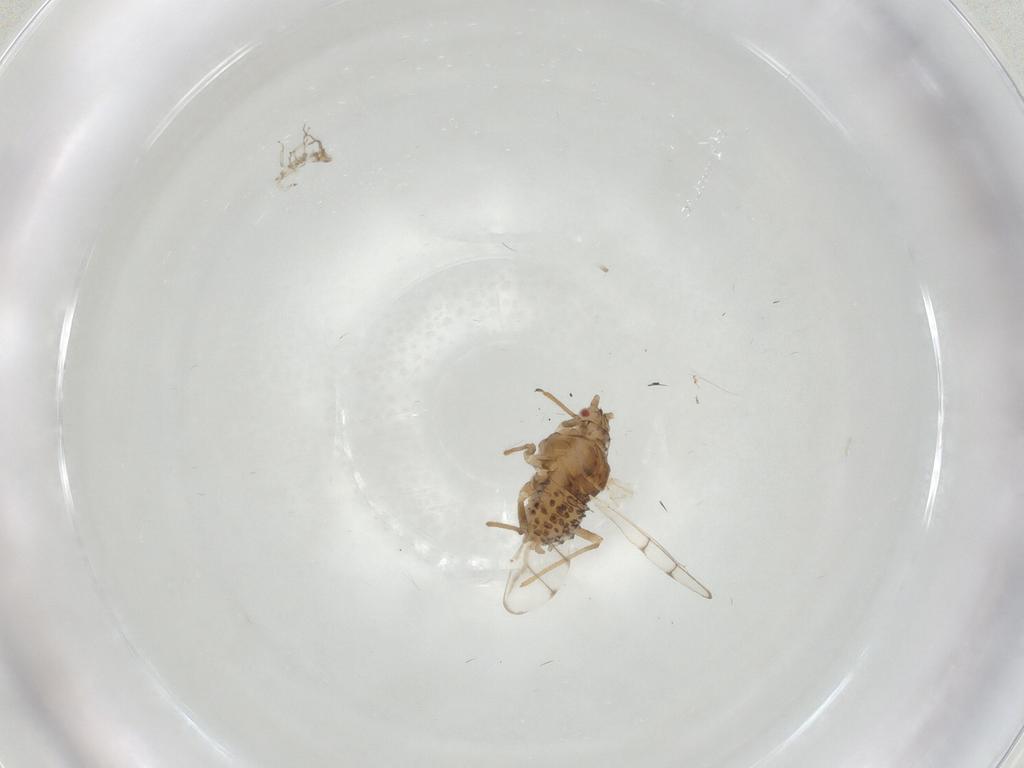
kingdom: Animalia
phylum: Arthropoda
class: Insecta
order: Hemiptera
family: Aphididae
